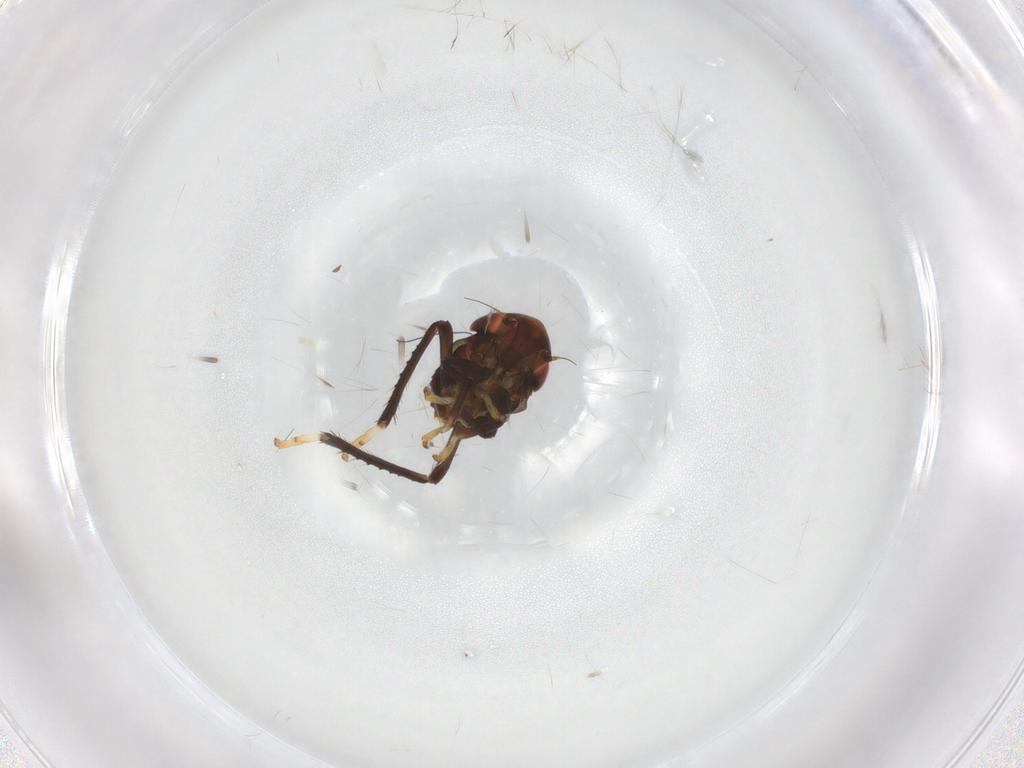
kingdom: Animalia
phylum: Arthropoda
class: Insecta
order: Hemiptera
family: Cicadellidae
